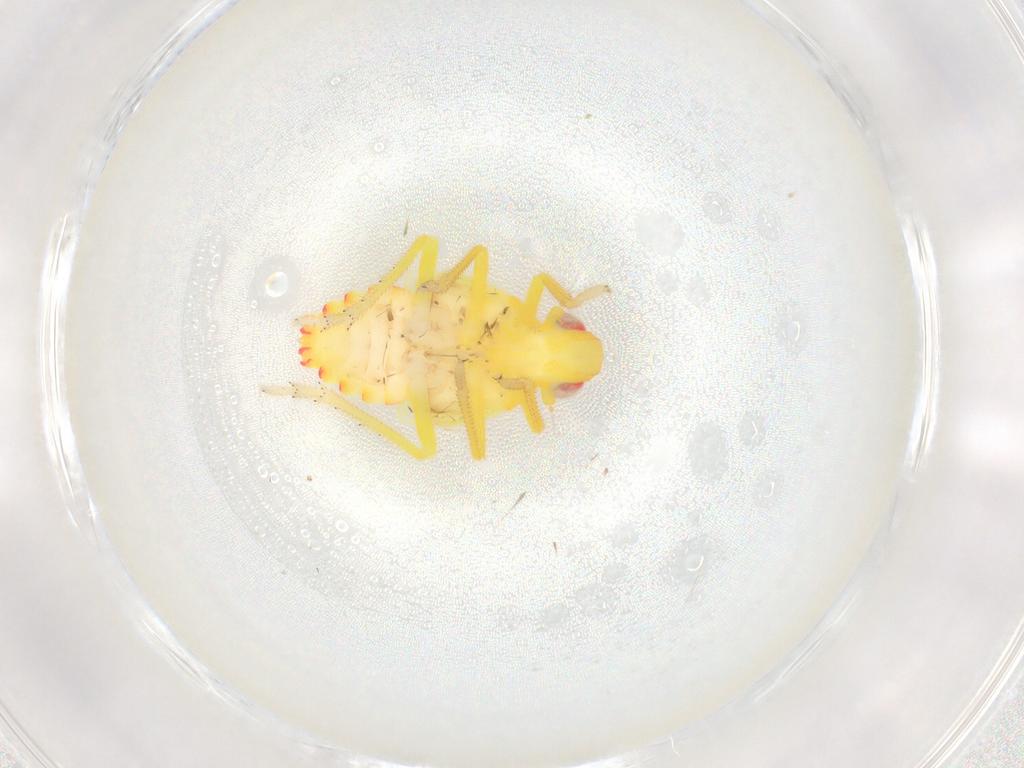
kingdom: Animalia
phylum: Arthropoda
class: Insecta
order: Hemiptera
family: Tropiduchidae
